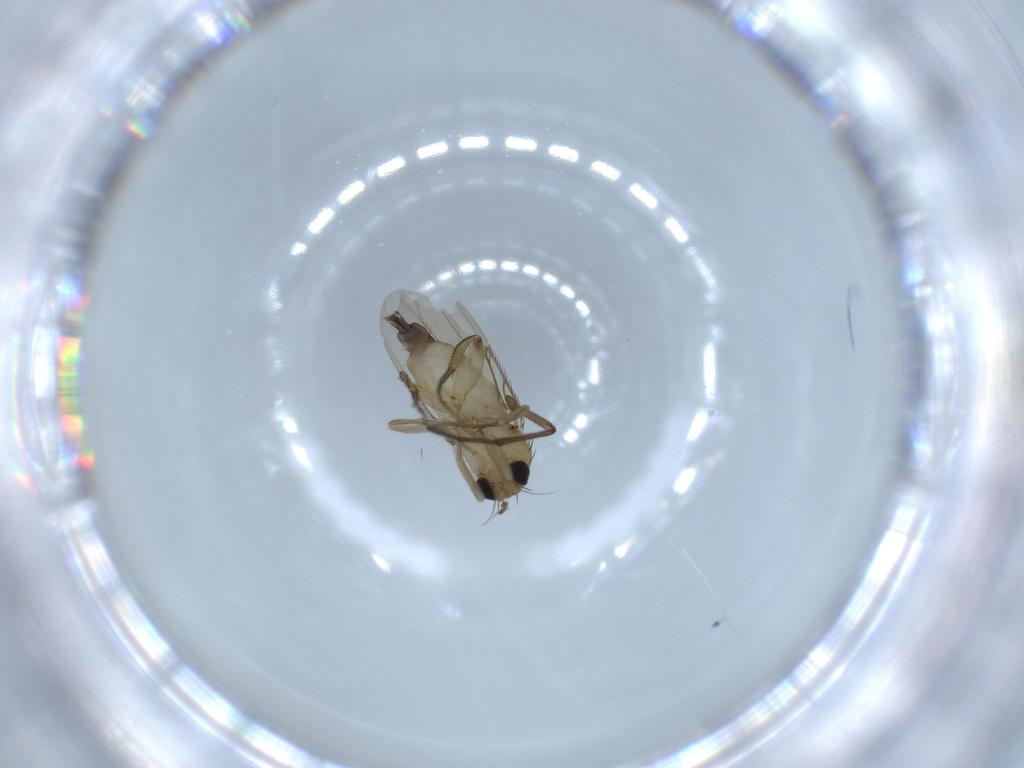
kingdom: Animalia
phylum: Arthropoda
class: Insecta
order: Diptera
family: Sciaridae
